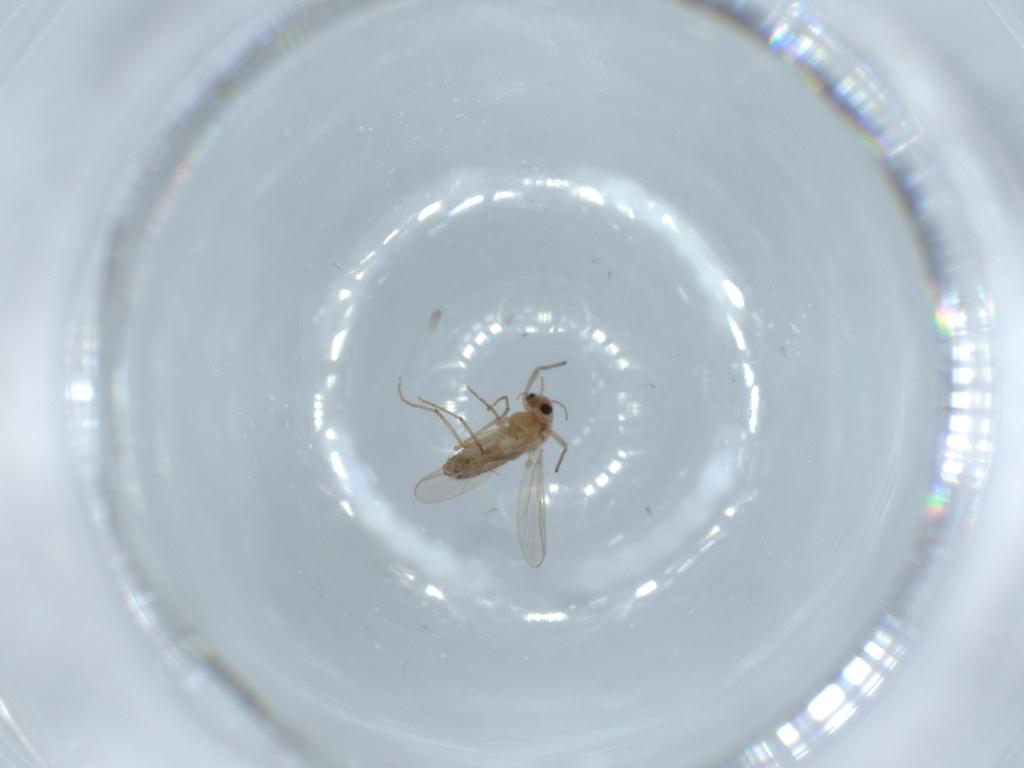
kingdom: Animalia
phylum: Arthropoda
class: Insecta
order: Diptera
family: Chironomidae
